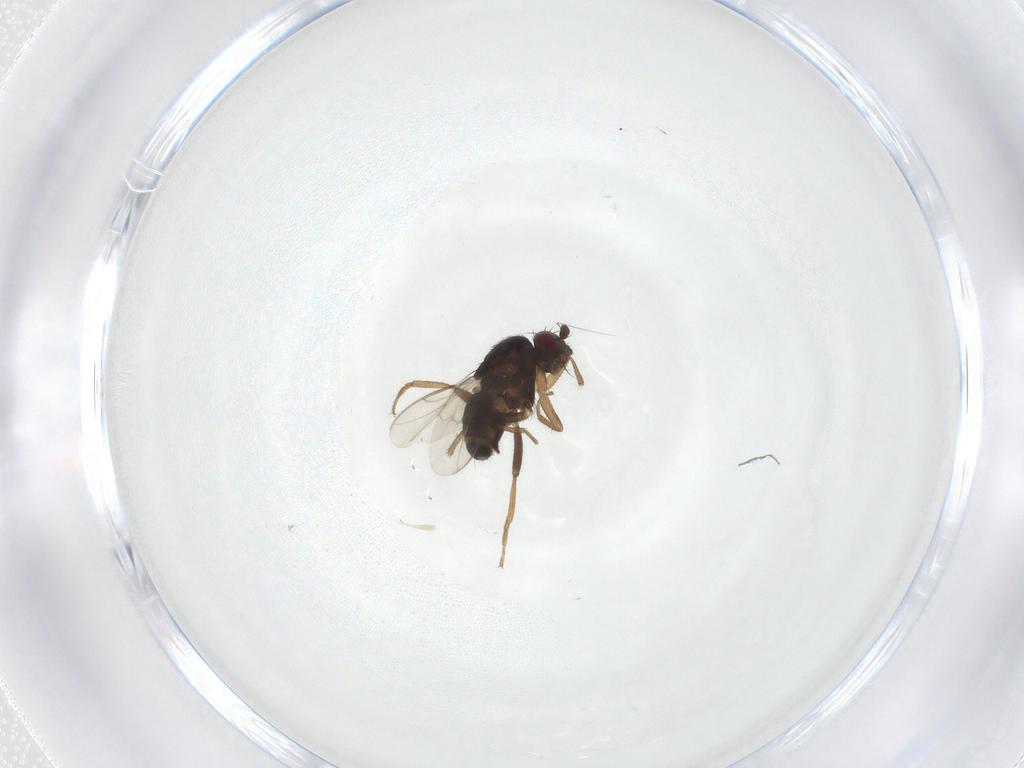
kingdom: Animalia
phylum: Arthropoda
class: Insecta
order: Diptera
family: Sphaeroceridae
